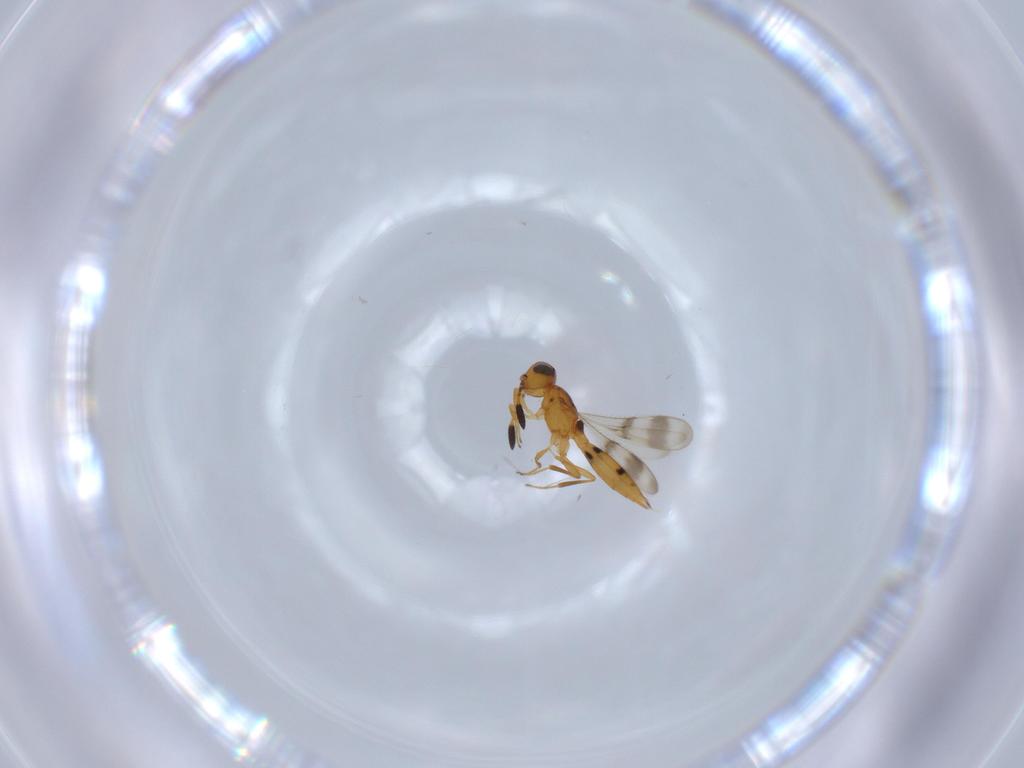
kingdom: Animalia
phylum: Arthropoda
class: Insecta
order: Hymenoptera
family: Scelionidae
